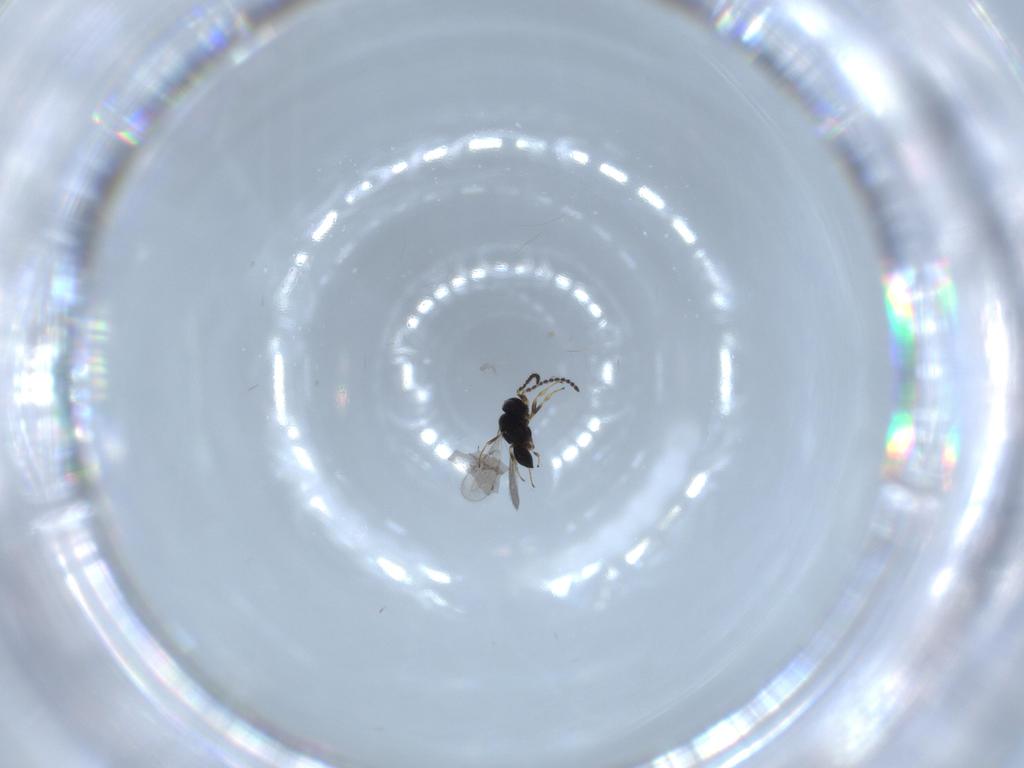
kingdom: Animalia
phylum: Arthropoda
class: Insecta
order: Hymenoptera
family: Scelionidae
